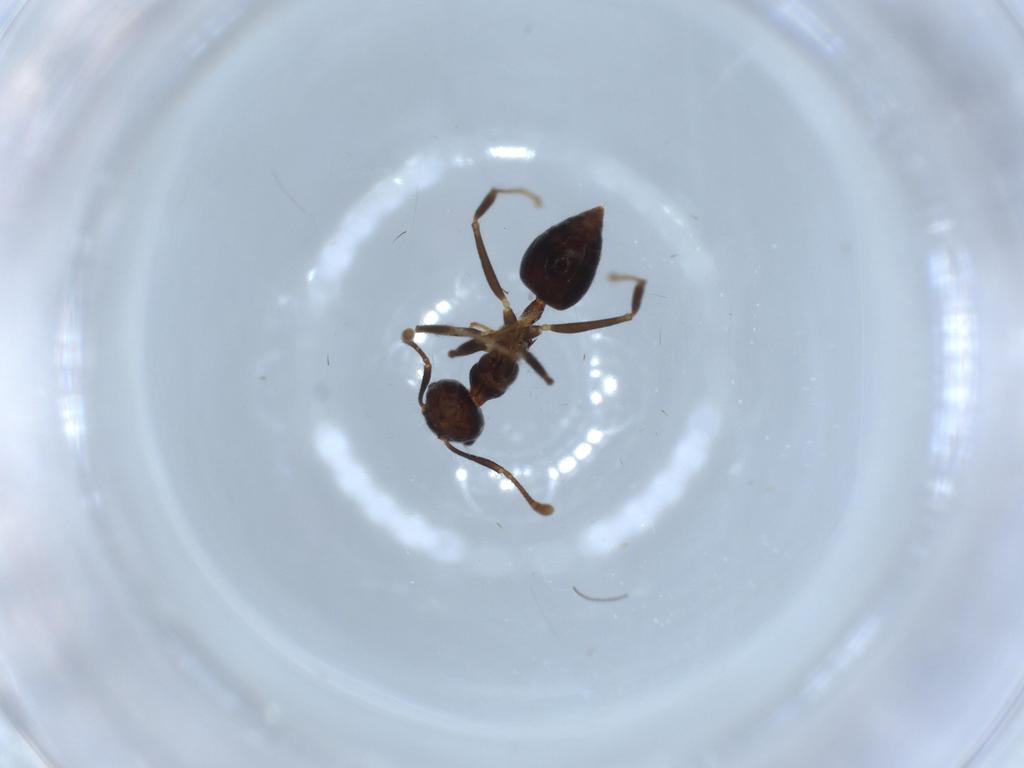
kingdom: Animalia
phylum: Arthropoda
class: Insecta
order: Hymenoptera
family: Formicidae
